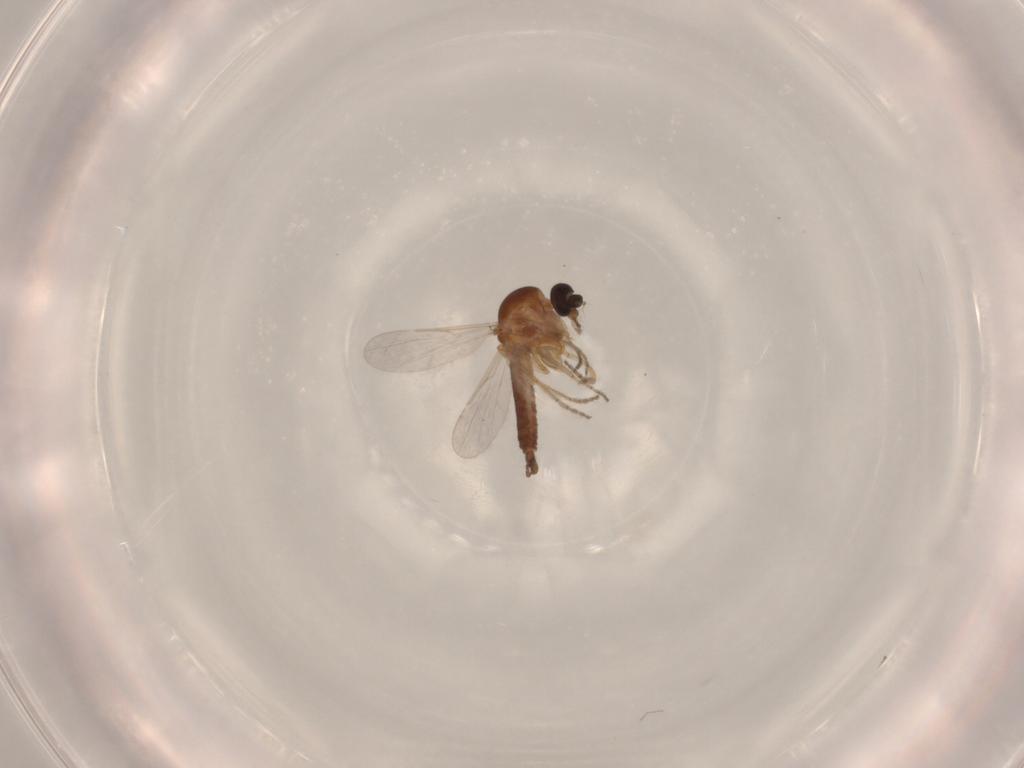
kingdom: Animalia
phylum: Arthropoda
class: Insecta
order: Diptera
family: Ceratopogonidae
